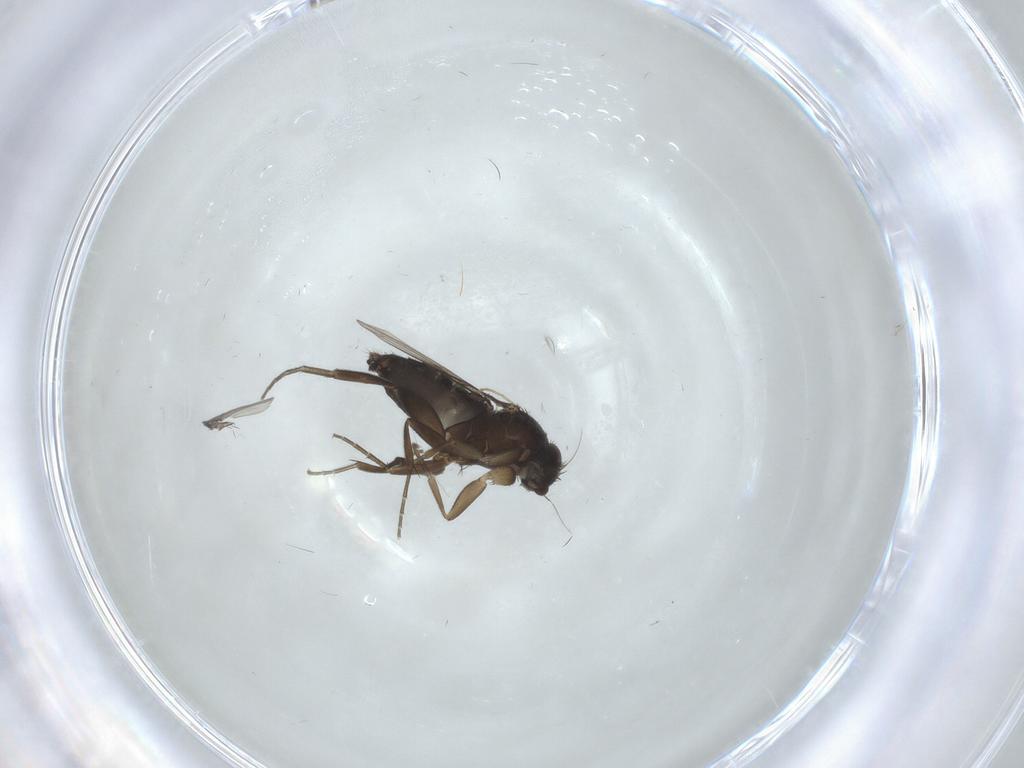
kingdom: Animalia
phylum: Arthropoda
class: Insecta
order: Diptera
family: Phoridae
